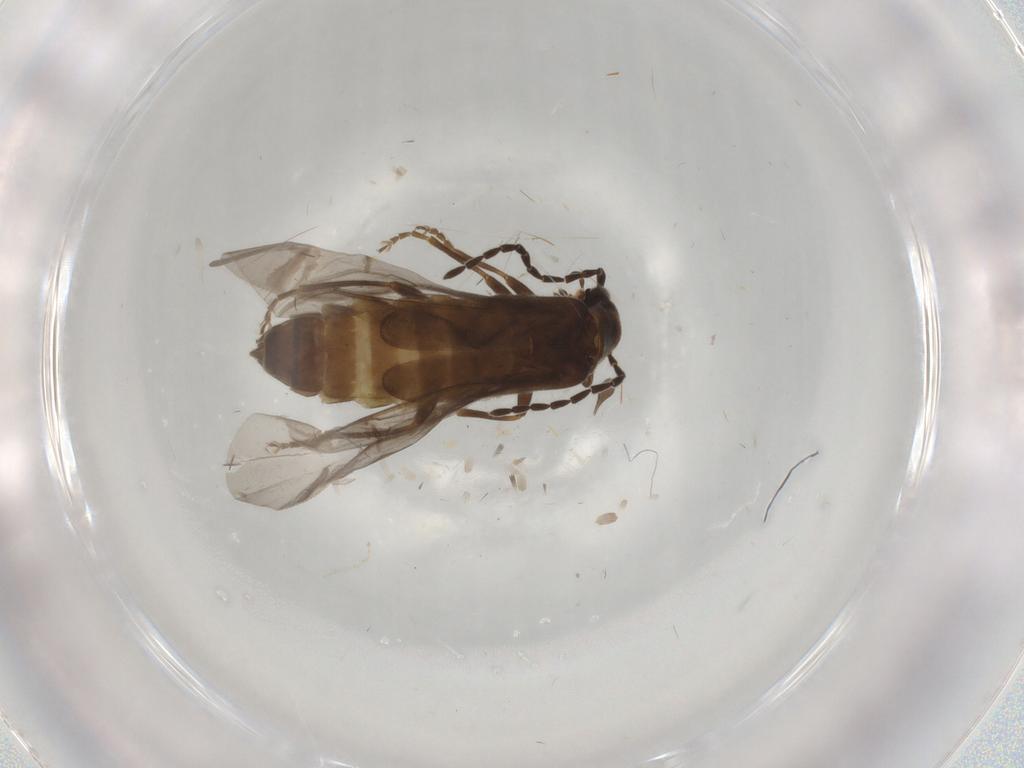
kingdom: Animalia
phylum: Arthropoda
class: Insecta
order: Coleoptera
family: Cantharidae
